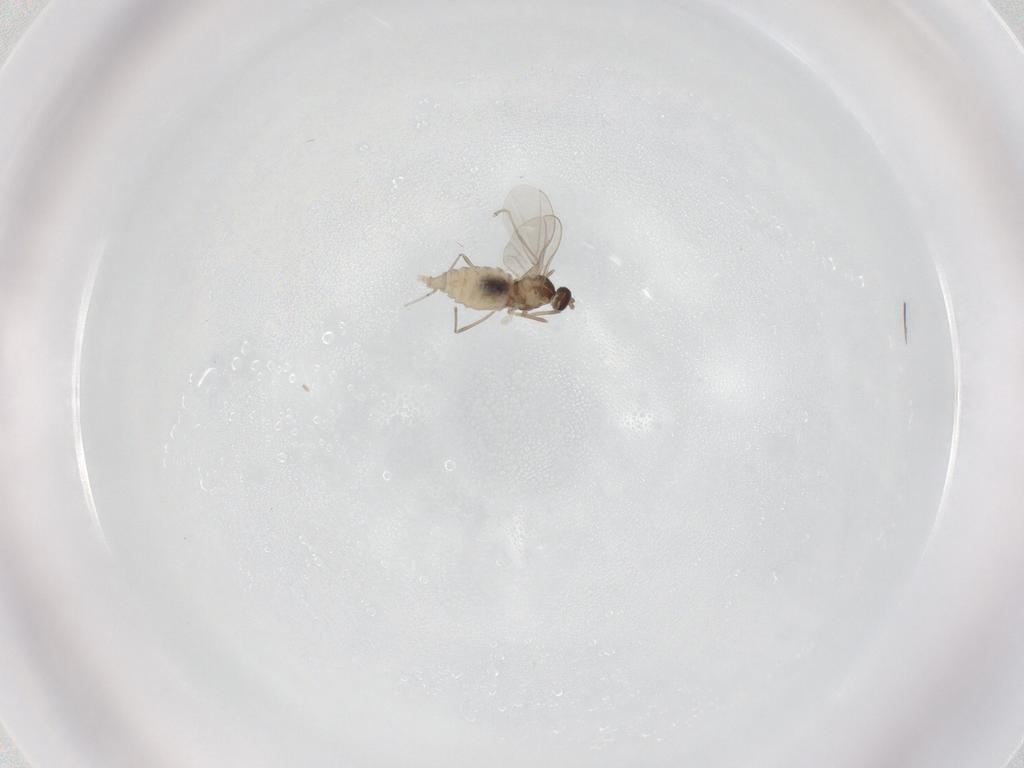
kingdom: Animalia
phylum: Arthropoda
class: Insecta
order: Diptera
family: Cecidomyiidae
